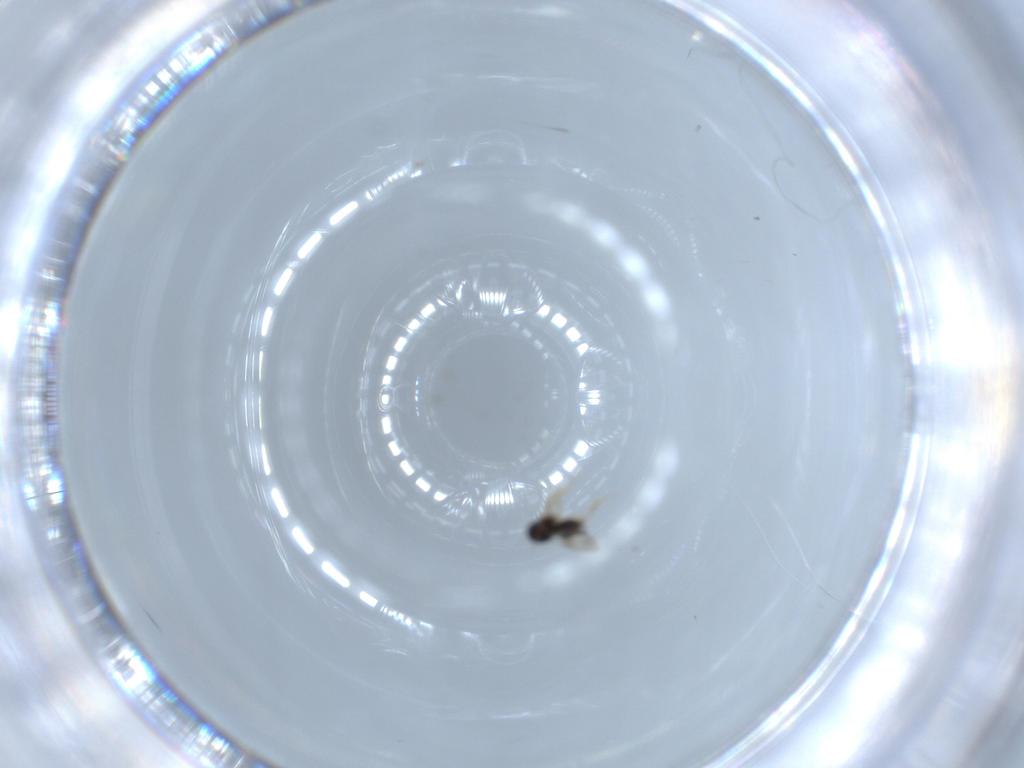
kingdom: Animalia
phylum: Arthropoda
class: Insecta
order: Hymenoptera
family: Ceraphronidae
